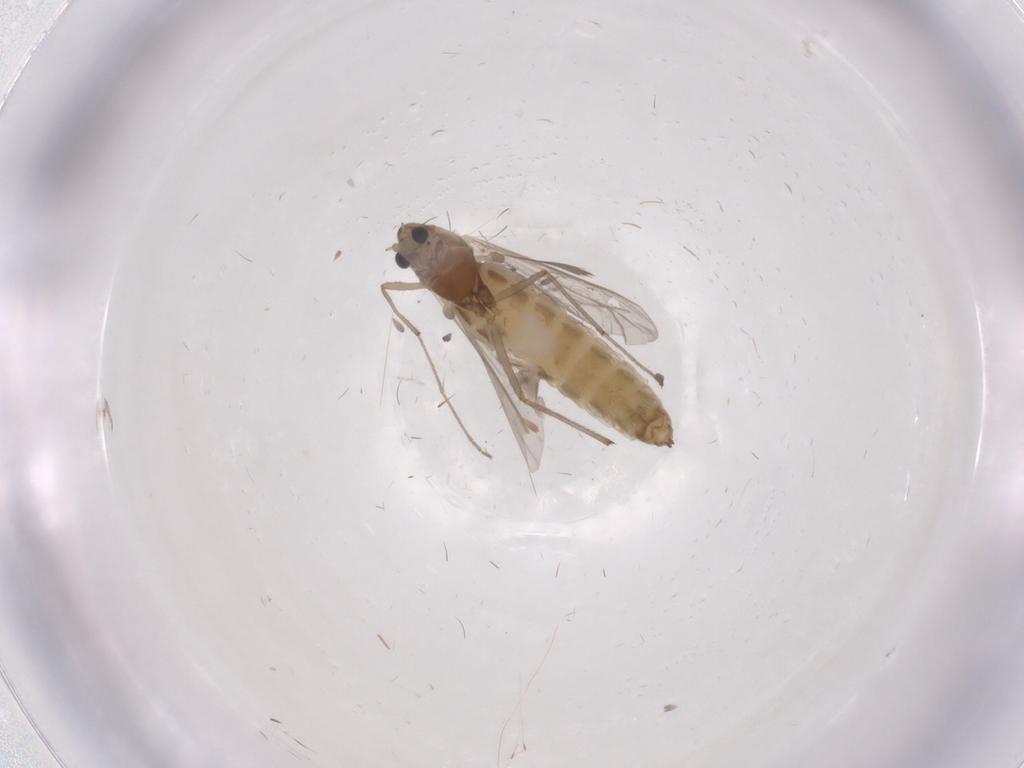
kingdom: Animalia
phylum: Arthropoda
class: Insecta
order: Diptera
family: Chironomidae
